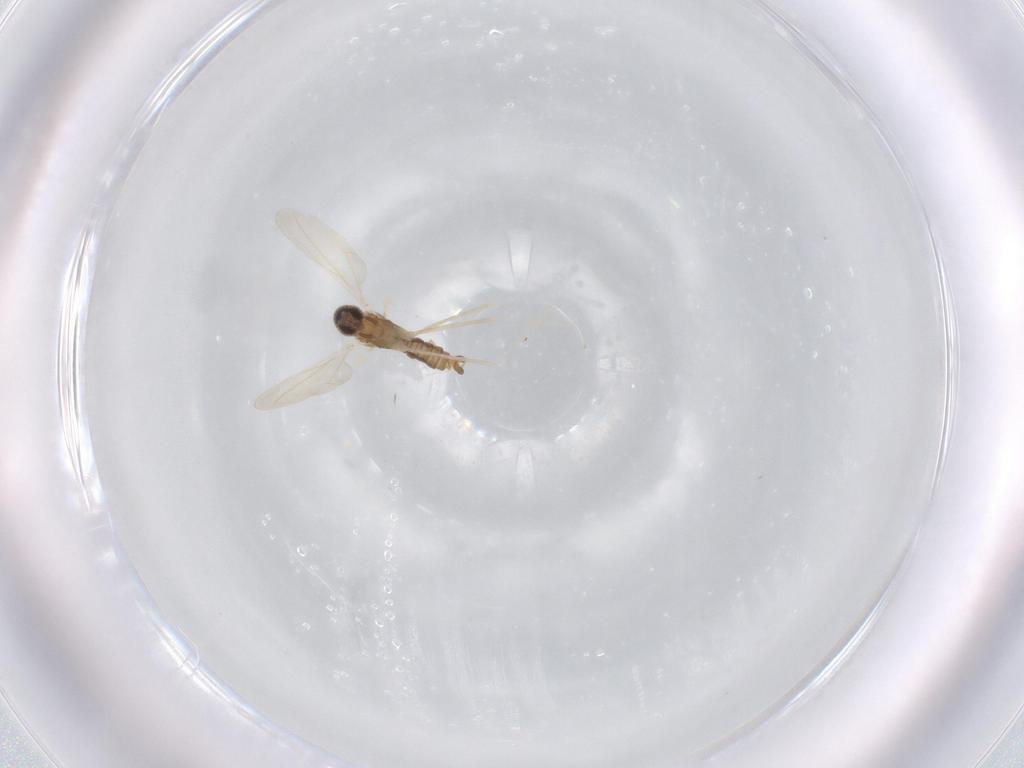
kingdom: Animalia
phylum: Arthropoda
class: Insecta
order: Diptera
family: Cecidomyiidae
